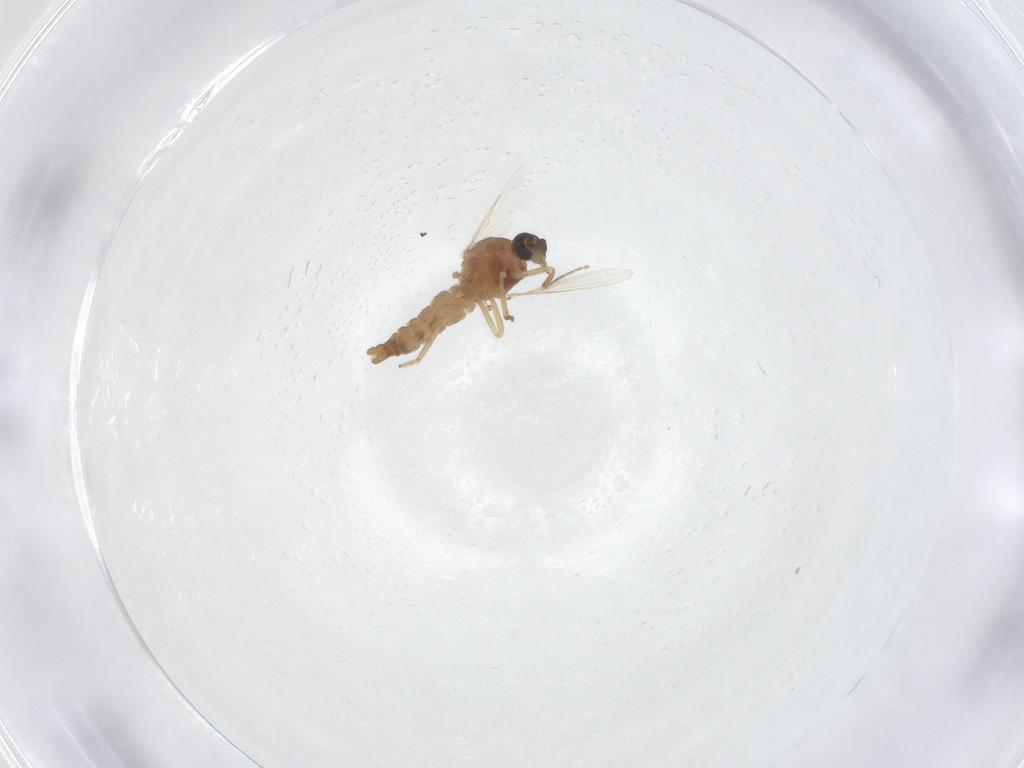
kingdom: Animalia
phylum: Arthropoda
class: Insecta
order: Diptera
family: Ceratopogonidae
